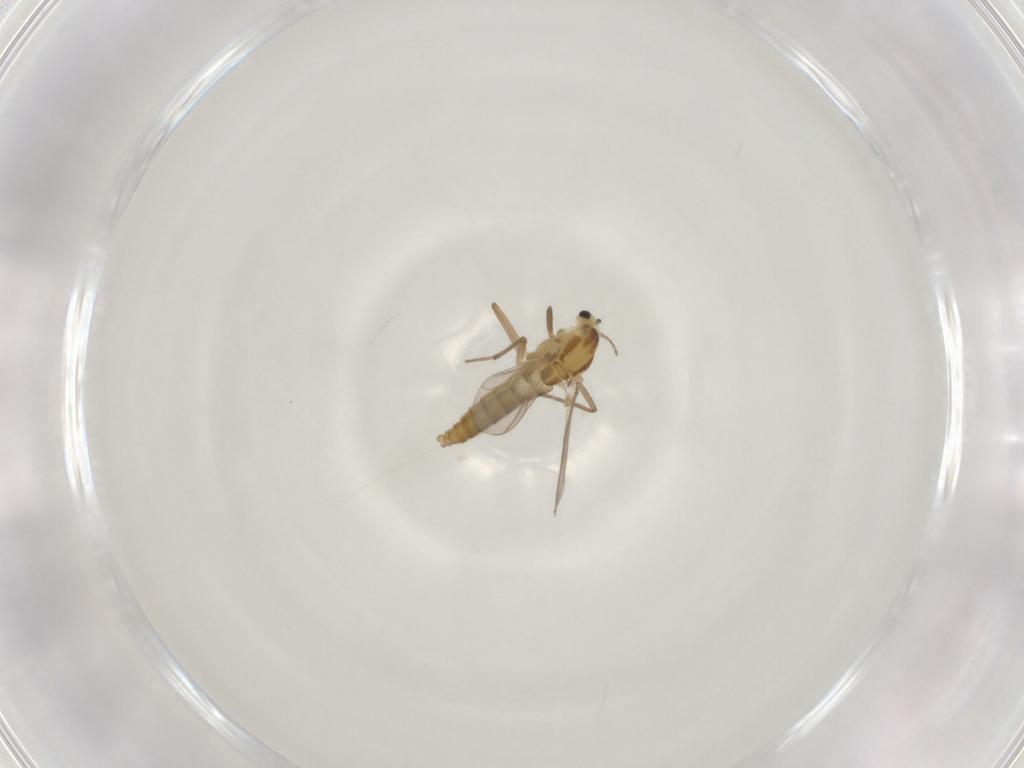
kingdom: Animalia
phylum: Arthropoda
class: Insecta
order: Diptera
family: Chironomidae
